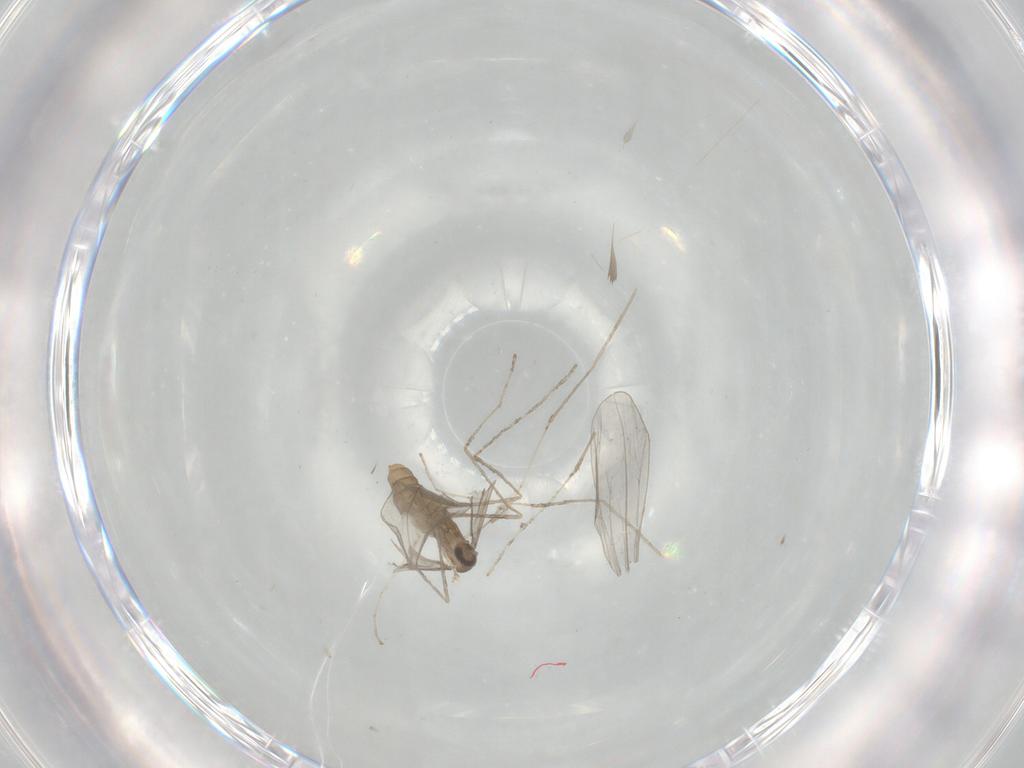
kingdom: Animalia
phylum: Arthropoda
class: Insecta
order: Diptera
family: Cecidomyiidae
